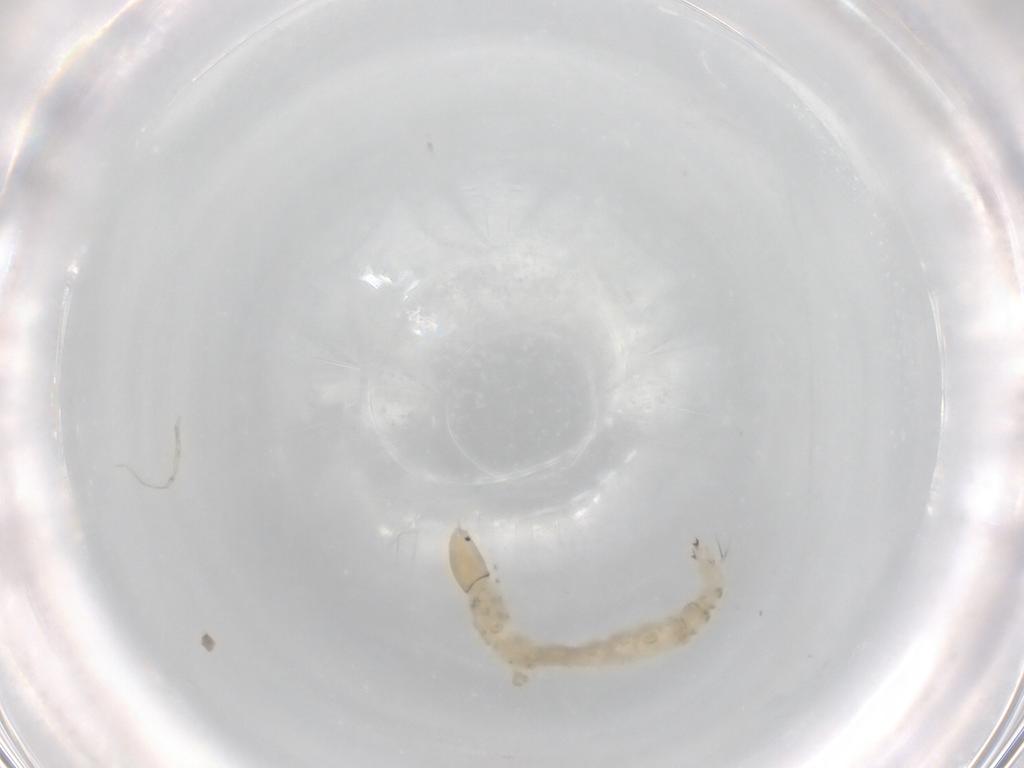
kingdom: Animalia
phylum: Arthropoda
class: Insecta
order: Diptera
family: Chironomidae
